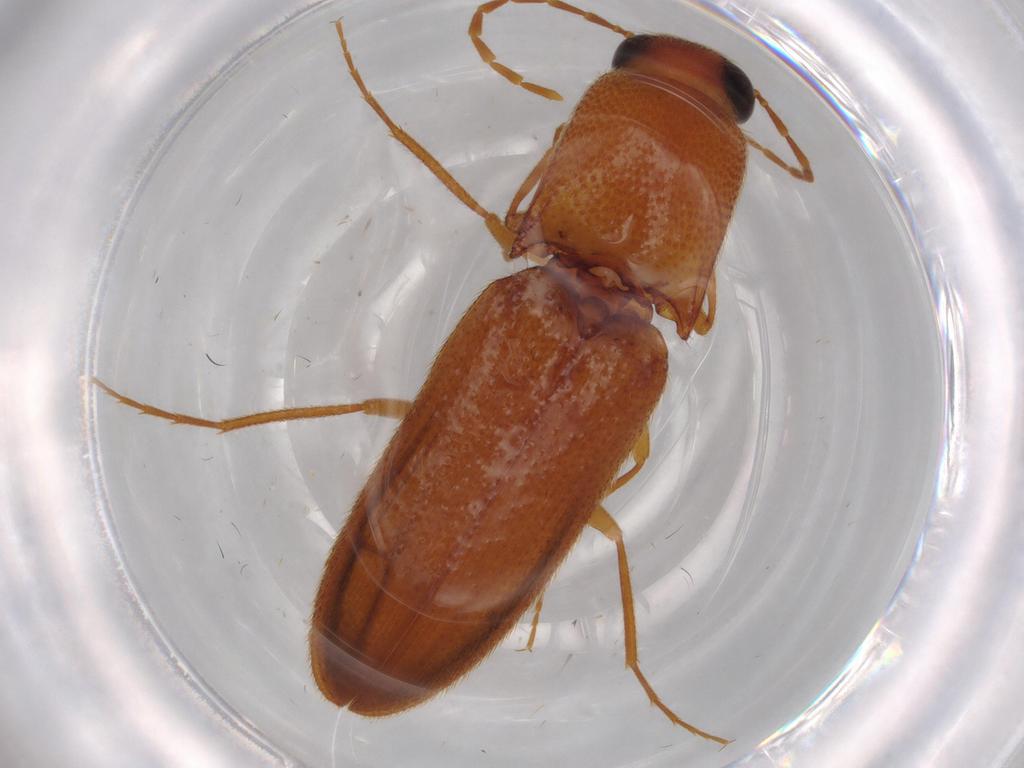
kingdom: Animalia
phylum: Arthropoda
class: Insecta
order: Coleoptera
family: Elateridae
